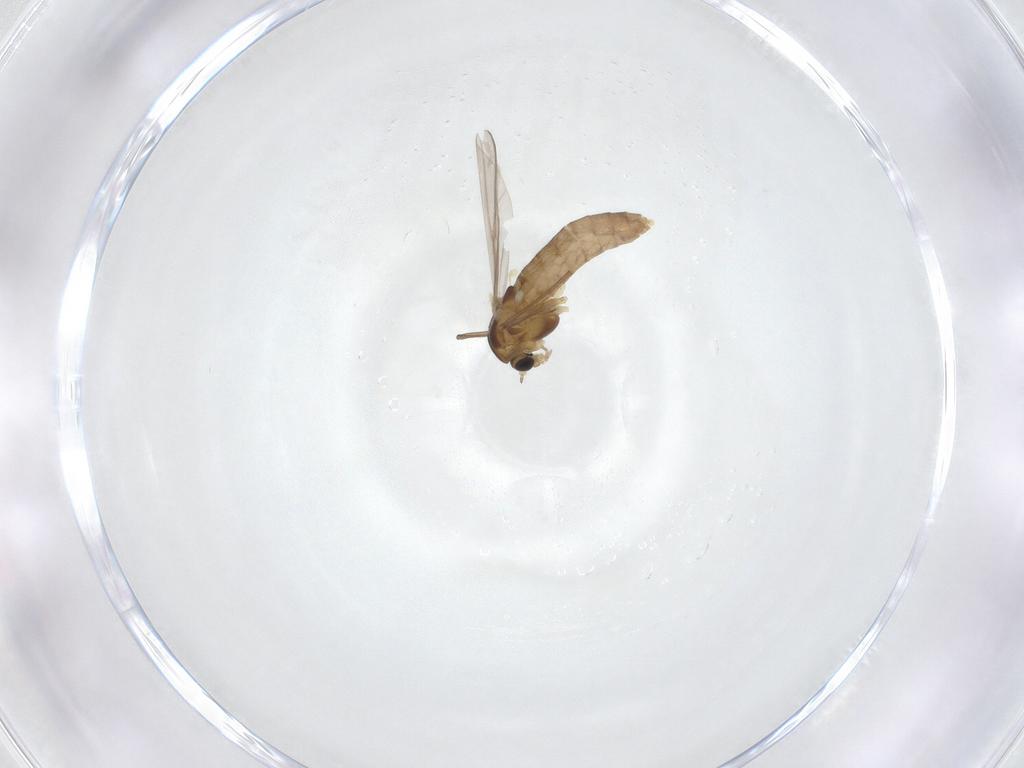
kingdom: Animalia
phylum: Arthropoda
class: Insecta
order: Diptera
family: Chironomidae
